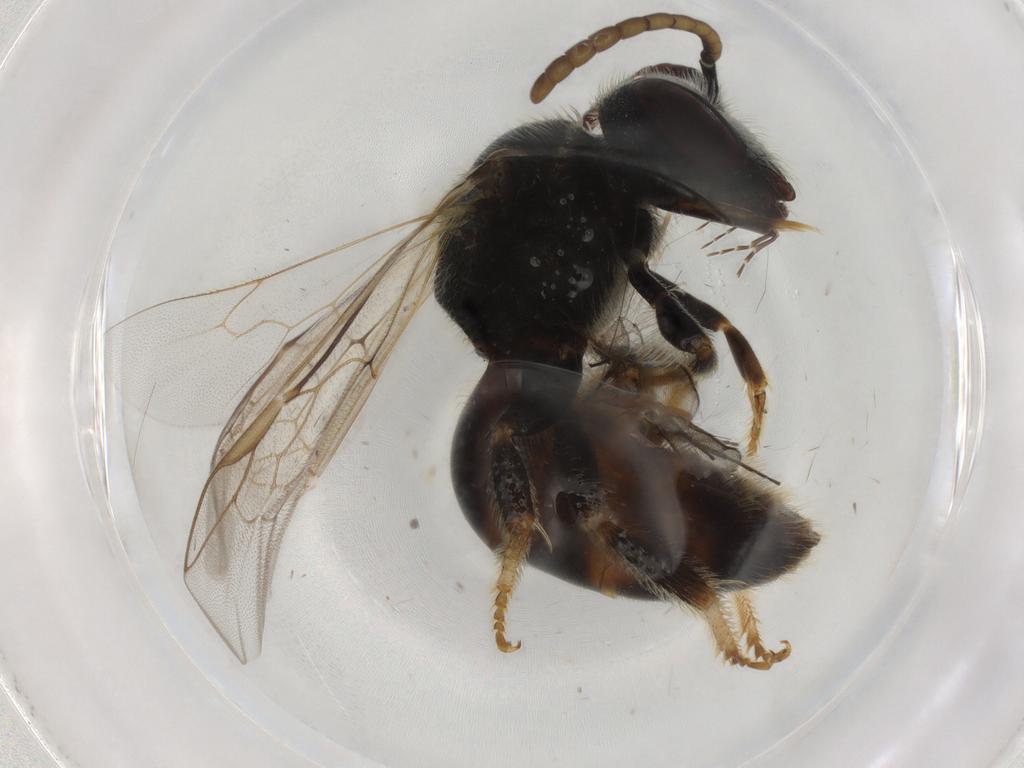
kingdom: Animalia
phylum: Arthropoda
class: Insecta
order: Hymenoptera
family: Halictidae
